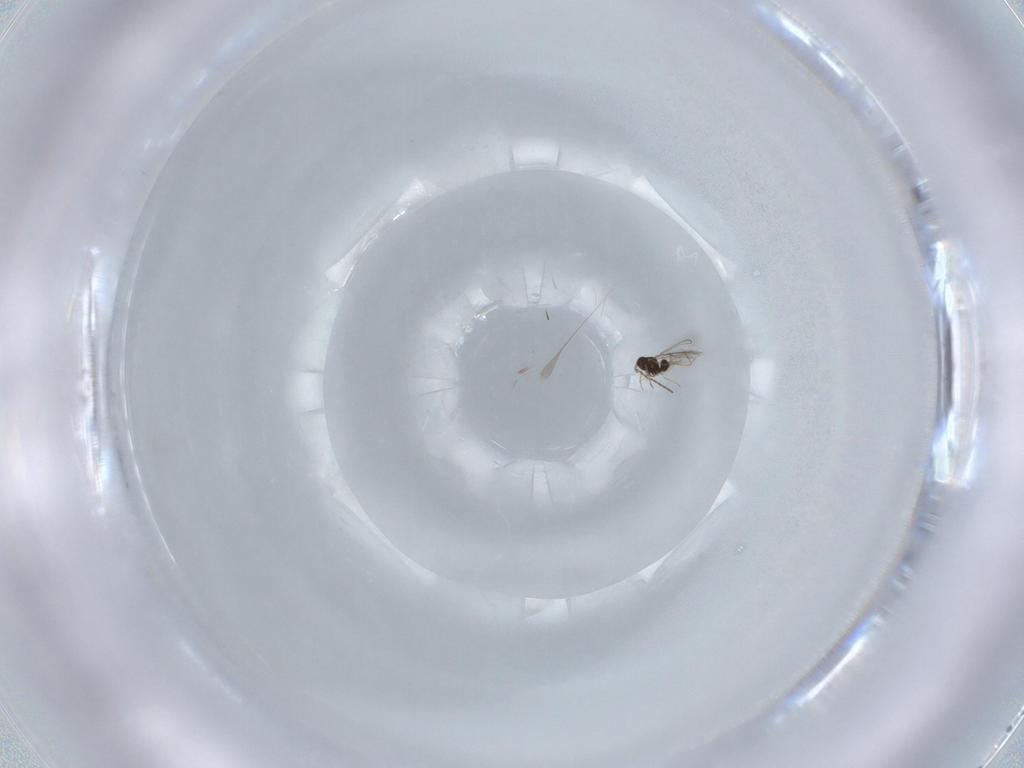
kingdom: Animalia
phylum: Arthropoda
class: Insecta
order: Hymenoptera
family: Mymaridae
